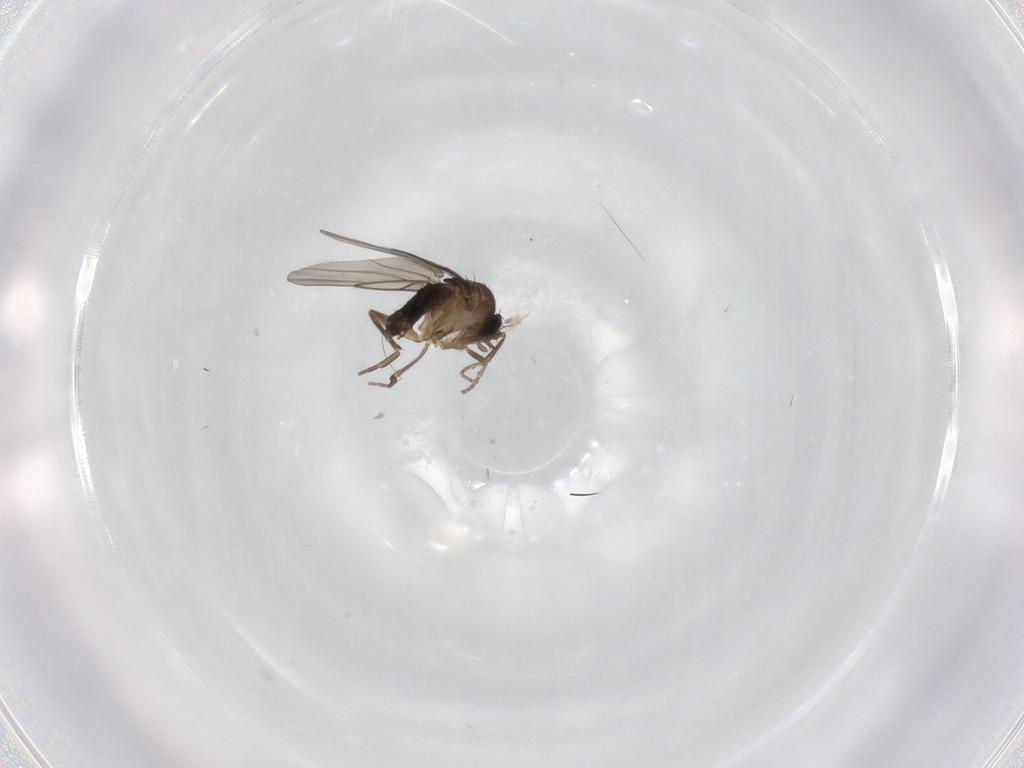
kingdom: Animalia
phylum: Arthropoda
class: Insecta
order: Diptera
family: Phoridae
